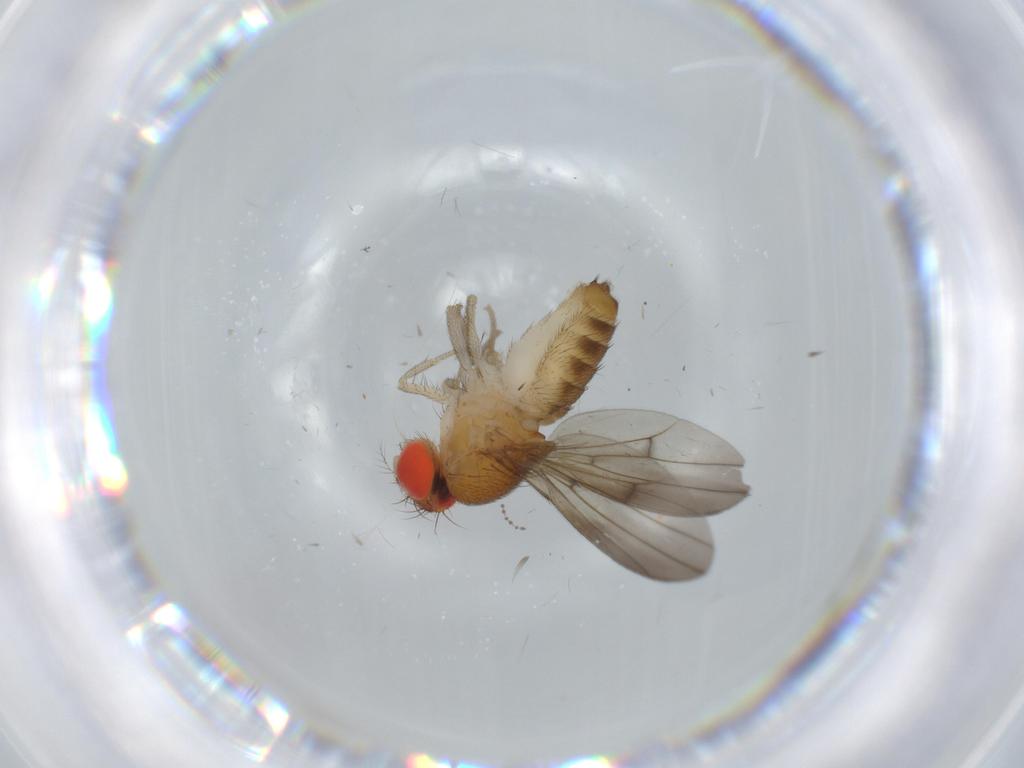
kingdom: Animalia
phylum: Arthropoda
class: Insecta
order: Diptera
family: Drosophilidae
